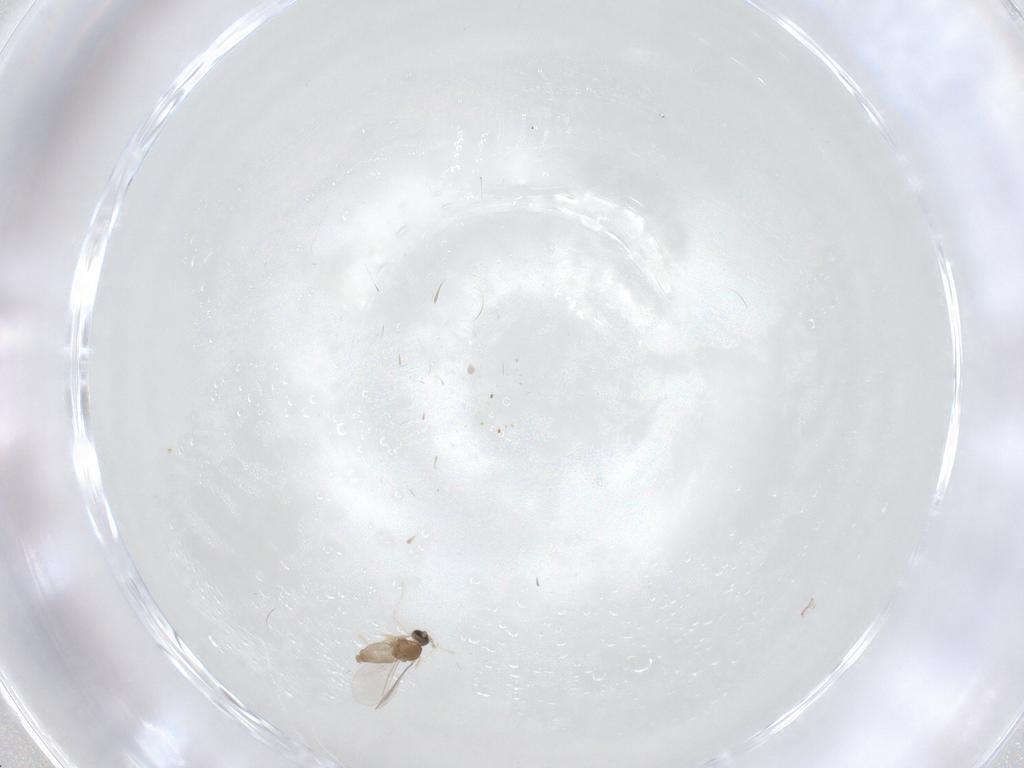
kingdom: Animalia
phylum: Arthropoda
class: Insecta
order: Diptera
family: Cecidomyiidae
